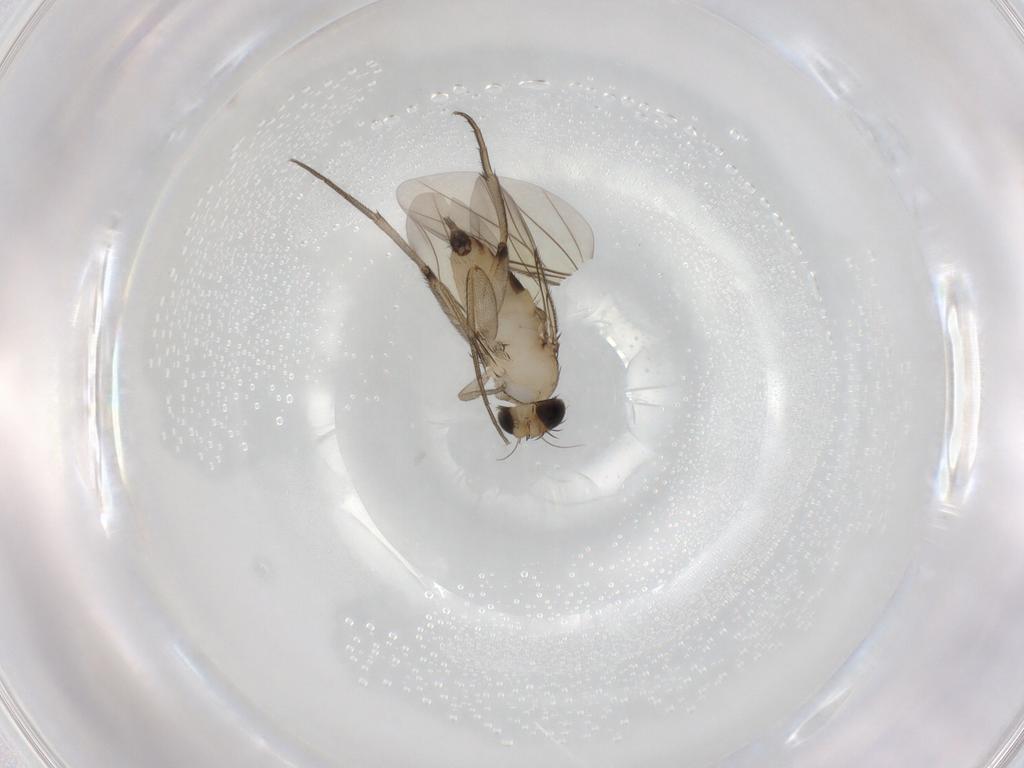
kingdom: Animalia
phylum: Arthropoda
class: Insecta
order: Diptera
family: Phoridae
